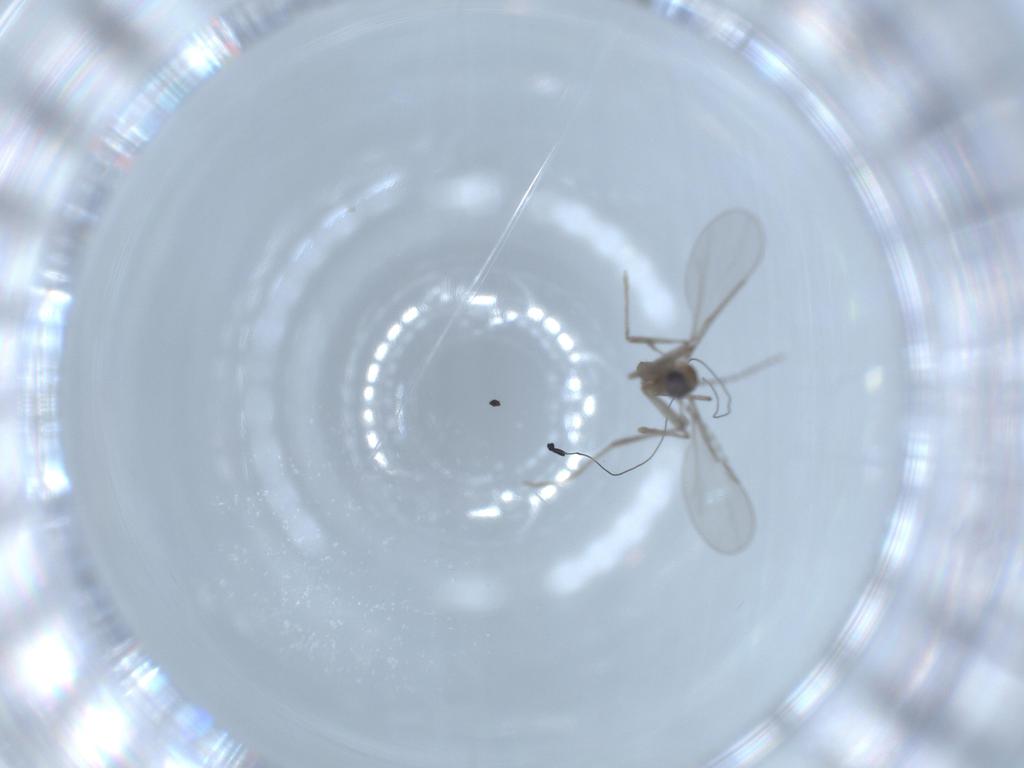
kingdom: Animalia
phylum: Arthropoda
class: Insecta
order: Diptera
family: Cecidomyiidae
